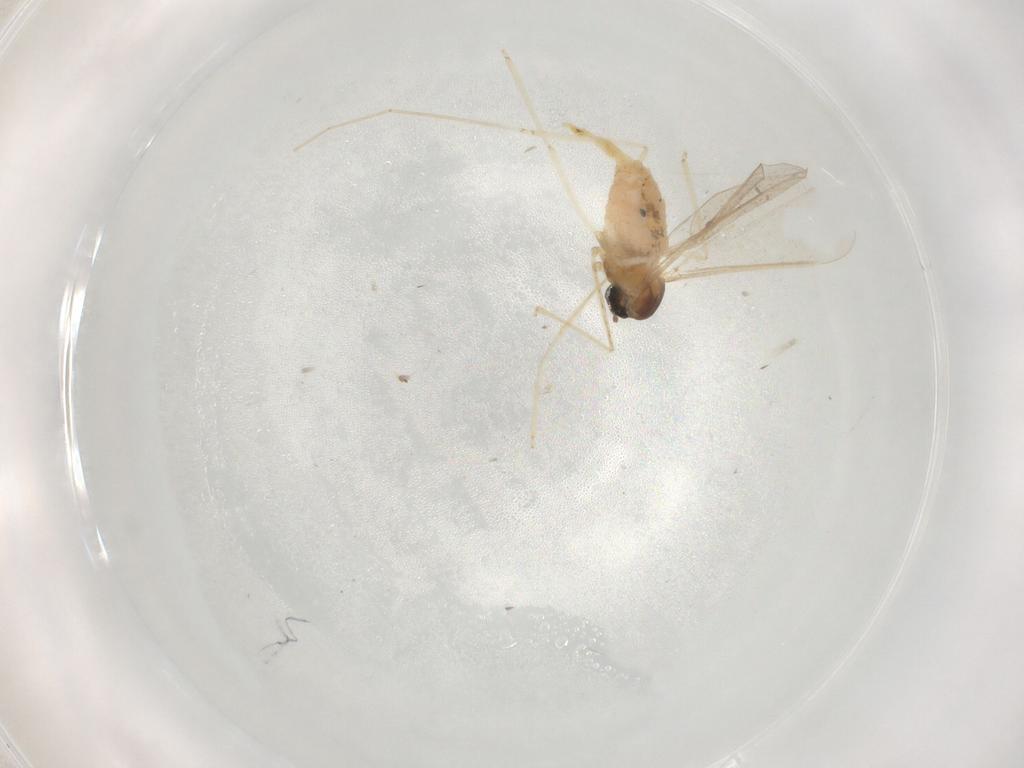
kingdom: Animalia
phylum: Arthropoda
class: Insecta
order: Diptera
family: Cecidomyiidae
